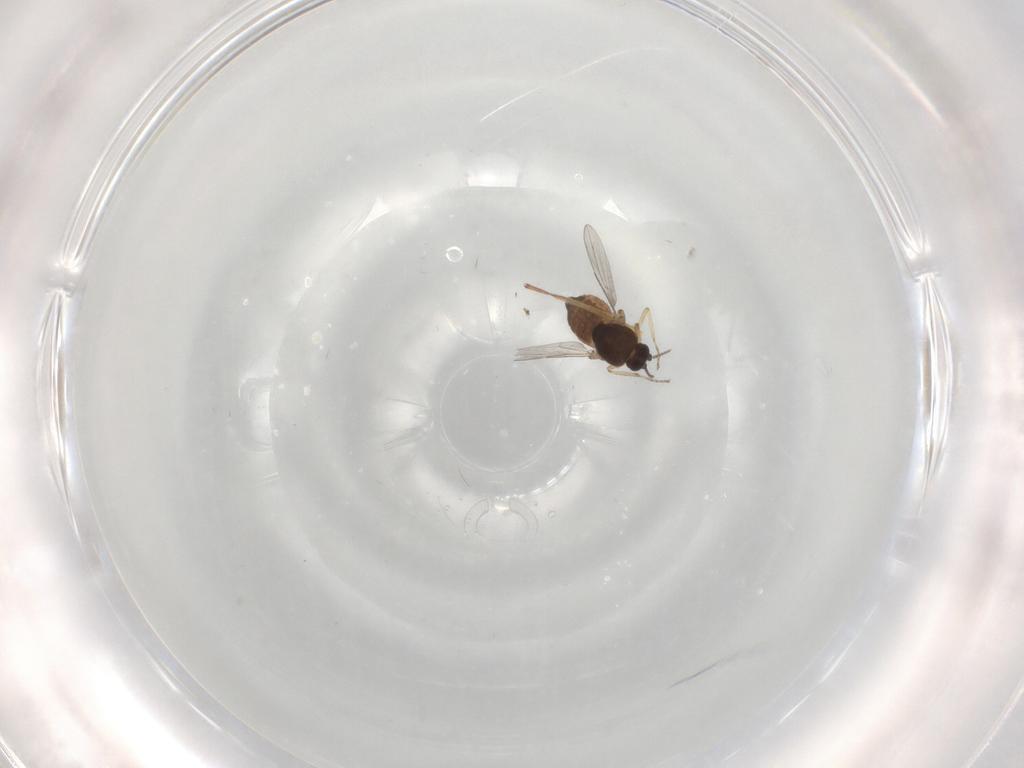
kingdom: Animalia
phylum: Arthropoda
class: Insecta
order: Diptera
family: Ceratopogonidae
